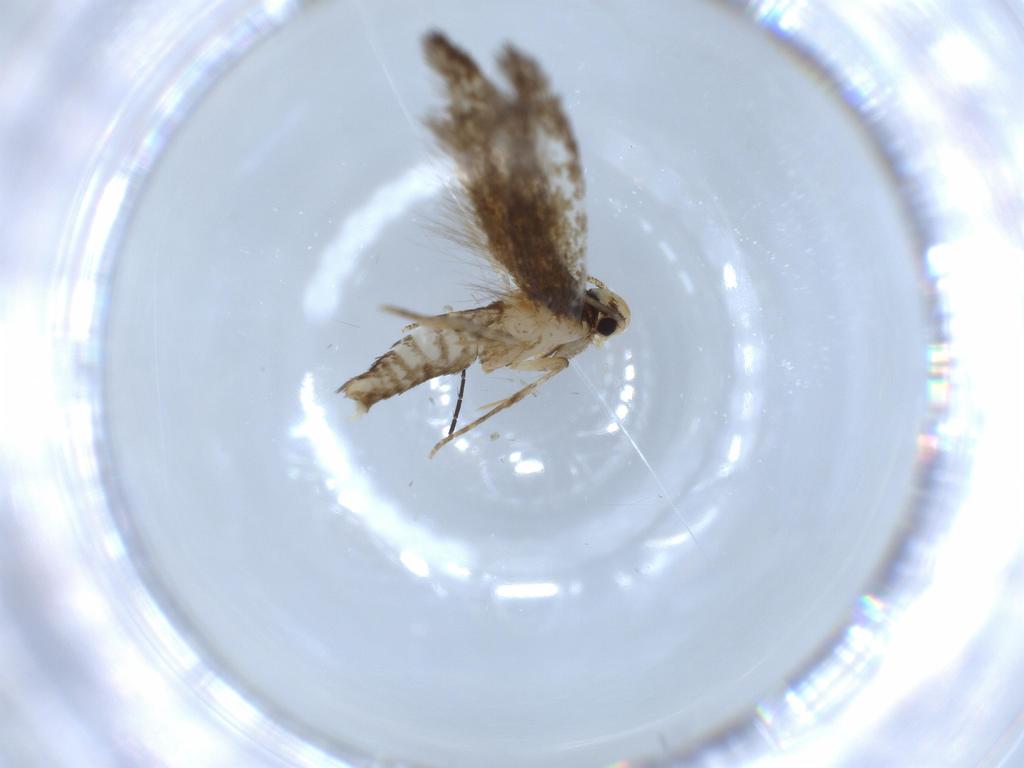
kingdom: Animalia
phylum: Arthropoda
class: Insecta
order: Lepidoptera
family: Tineidae
